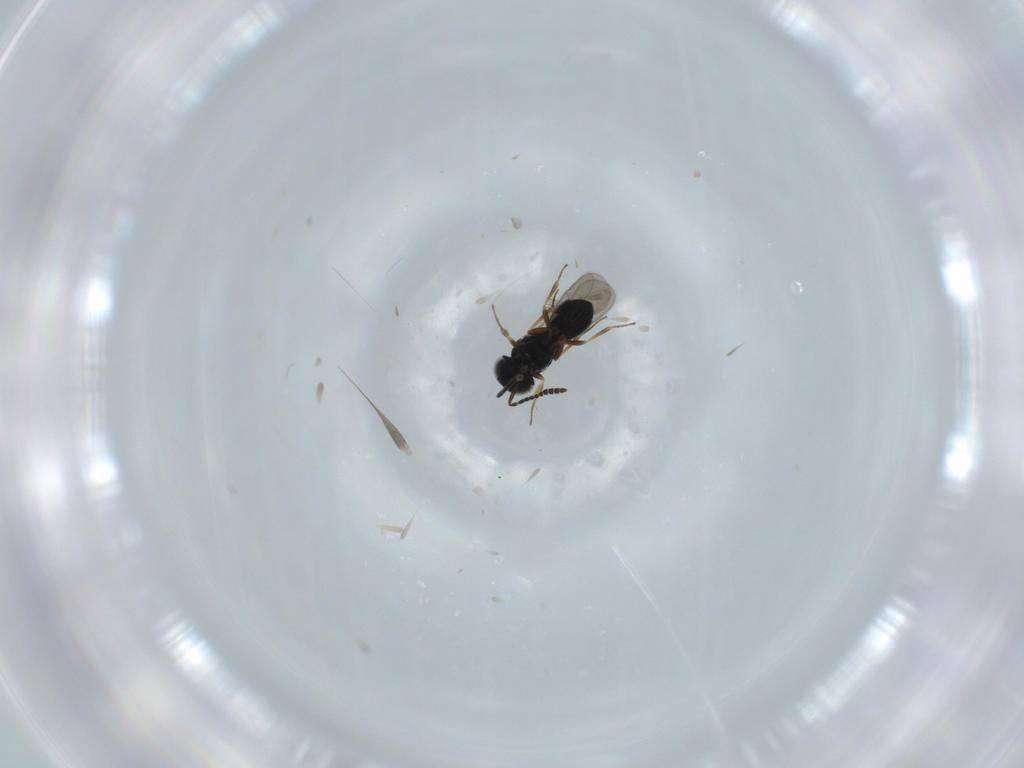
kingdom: Animalia
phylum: Arthropoda
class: Insecta
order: Hymenoptera
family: Scelionidae
